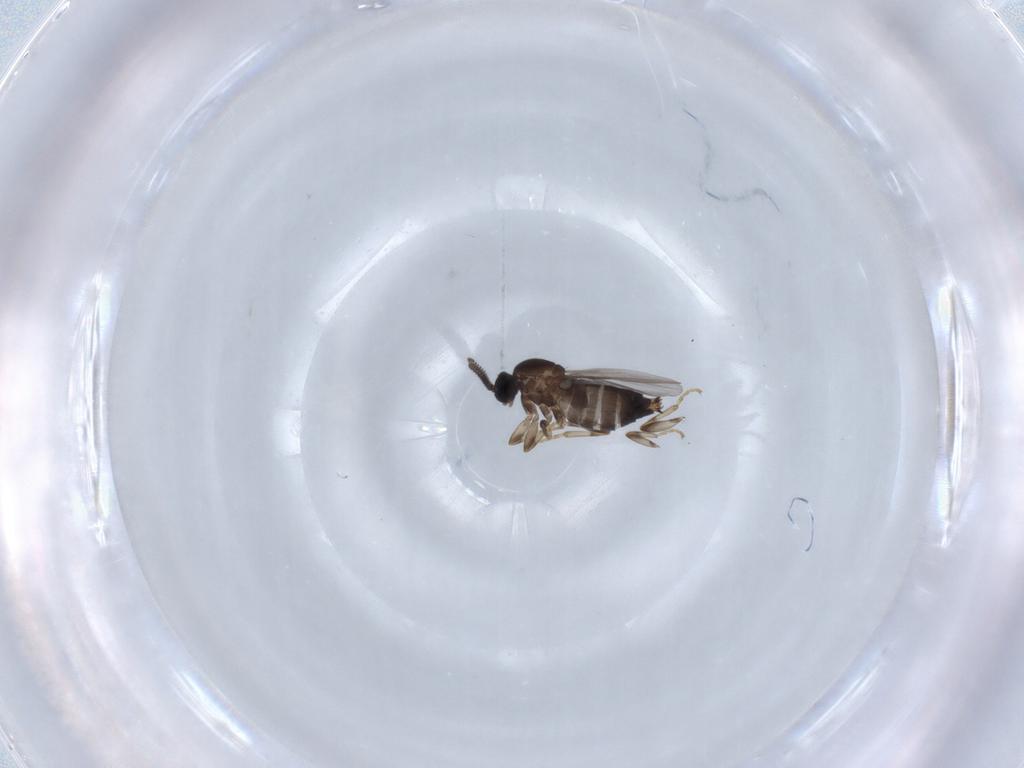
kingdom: Animalia
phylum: Arthropoda
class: Insecta
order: Diptera
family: Scatopsidae
